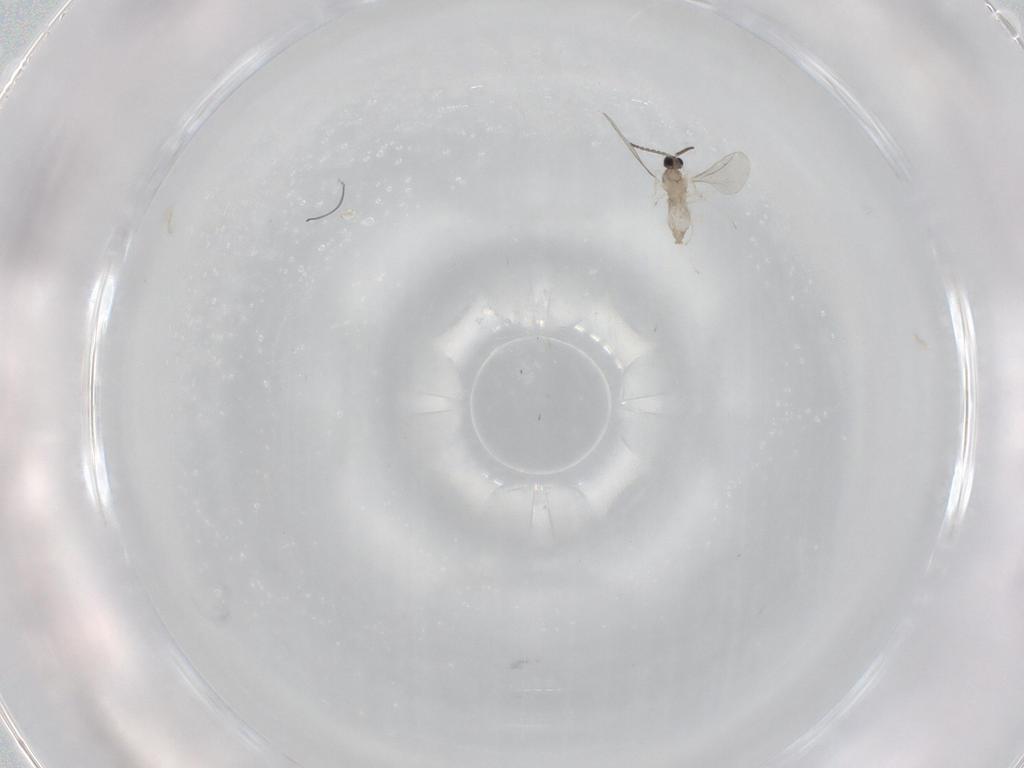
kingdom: Animalia
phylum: Arthropoda
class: Insecta
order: Diptera
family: Cecidomyiidae
